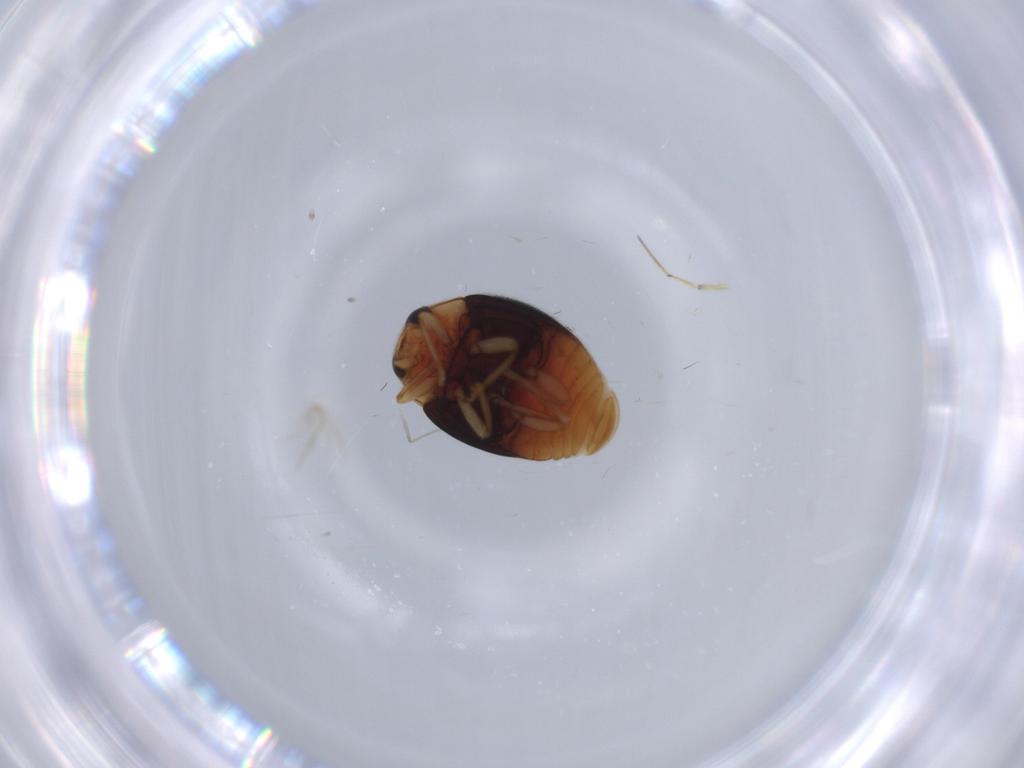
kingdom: Animalia
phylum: Arthropoda
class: Insecta
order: Coleoptera
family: Coccinellidae
